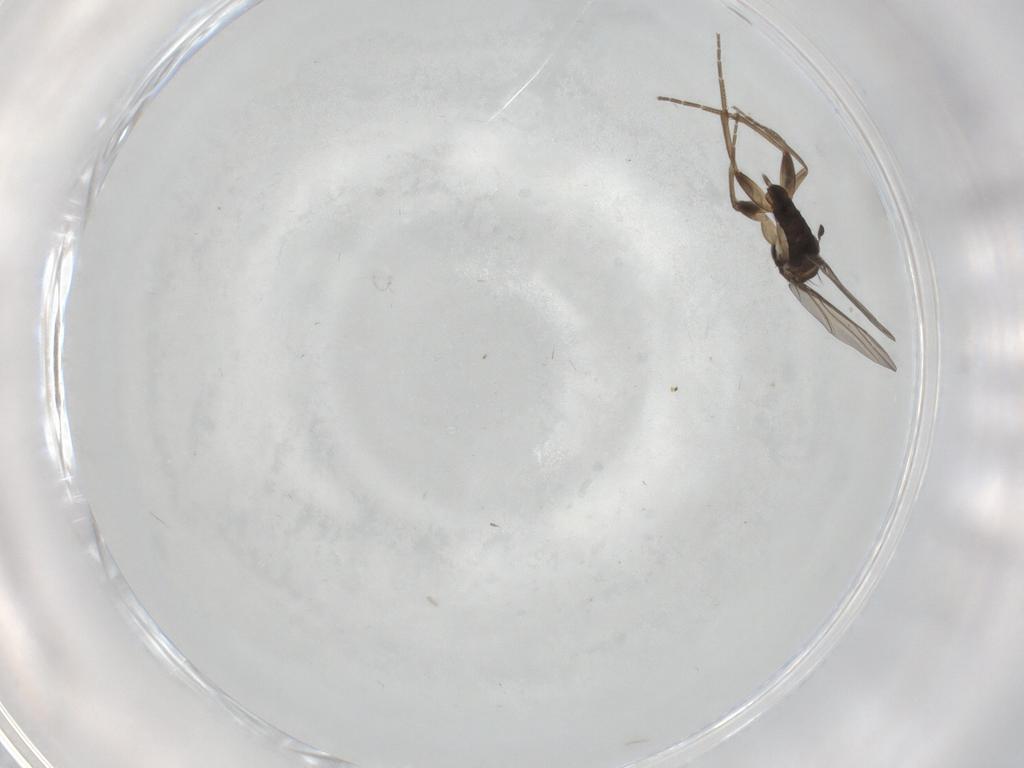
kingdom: Animalia
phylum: Arthropoda
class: Insecta
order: Diptera
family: Phoridae
